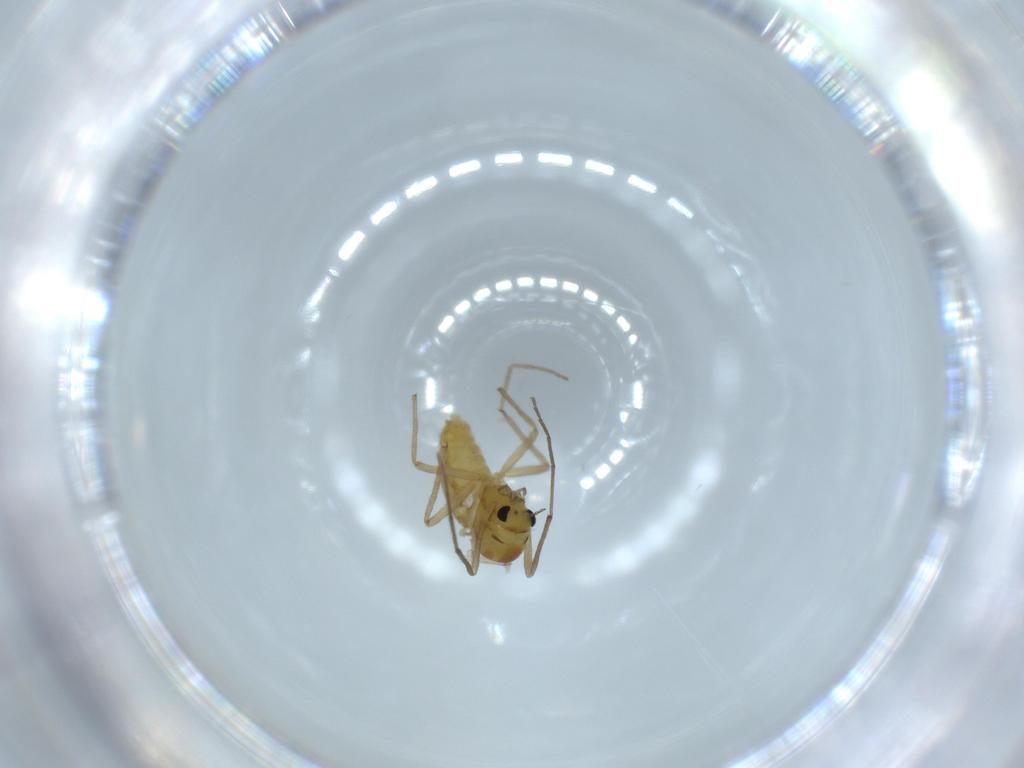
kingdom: Animalia
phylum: Arthropoda
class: Insecta
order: Diptera
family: Chironomidae
